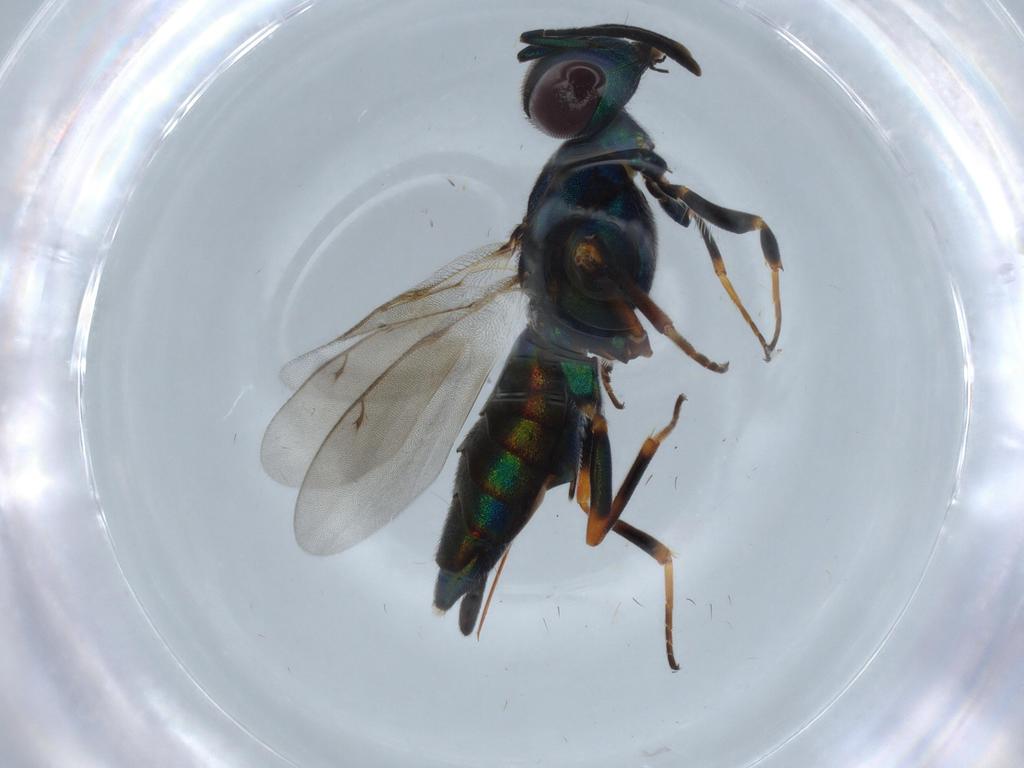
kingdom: Animalia
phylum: Arthropoda
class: Insecta
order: Hymenoptera
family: Eupelmidae
